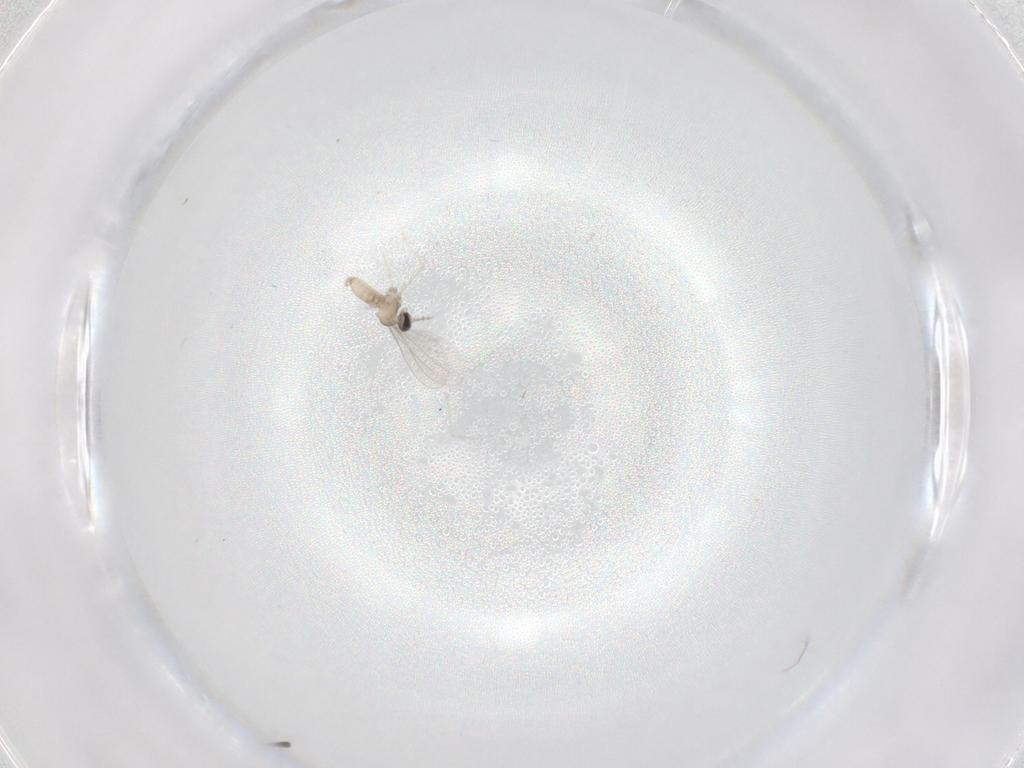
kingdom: Animalia
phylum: Arthropoda
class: Insecta
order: Diptera
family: Cecidomyiidae
